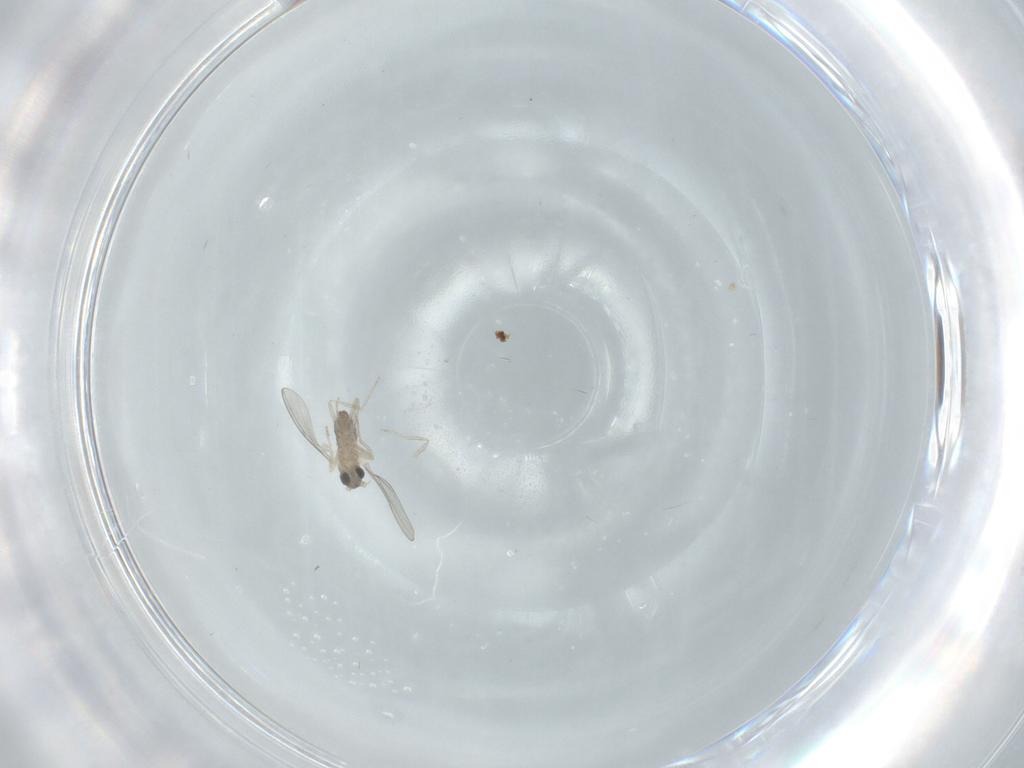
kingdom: Animalia
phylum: Arthropoda
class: Insecta
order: Diptera
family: Cecidomyiidae
